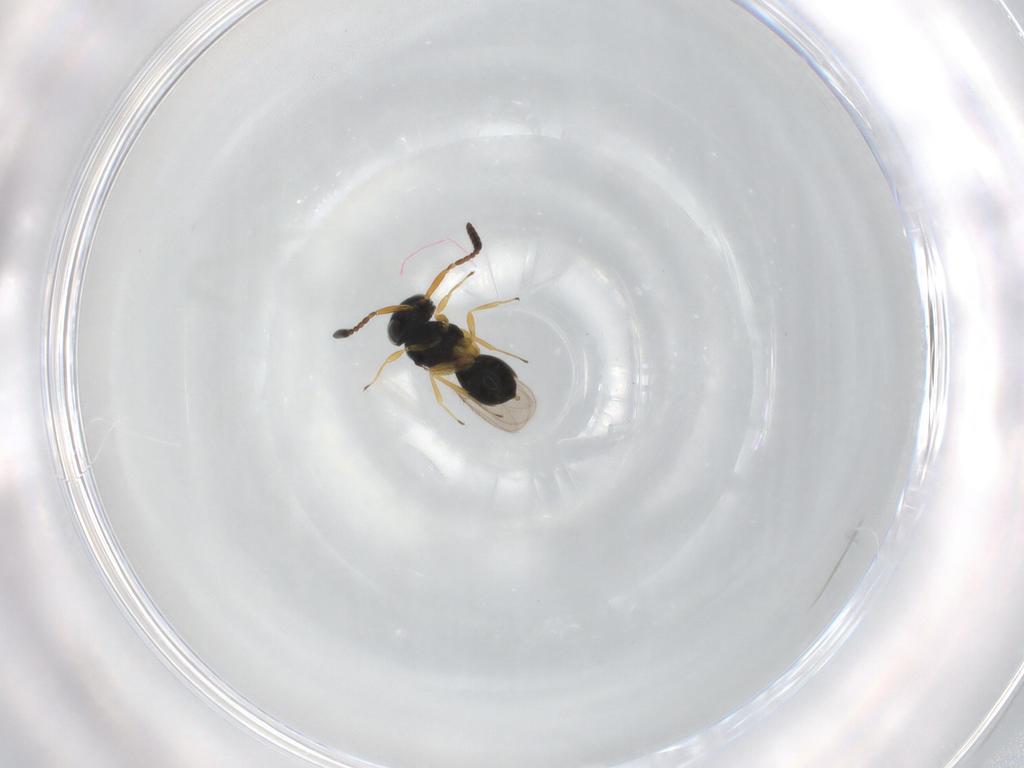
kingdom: Animalia
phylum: Arthropoda
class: Insecta
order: Hymenoptera
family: Scelionidae
